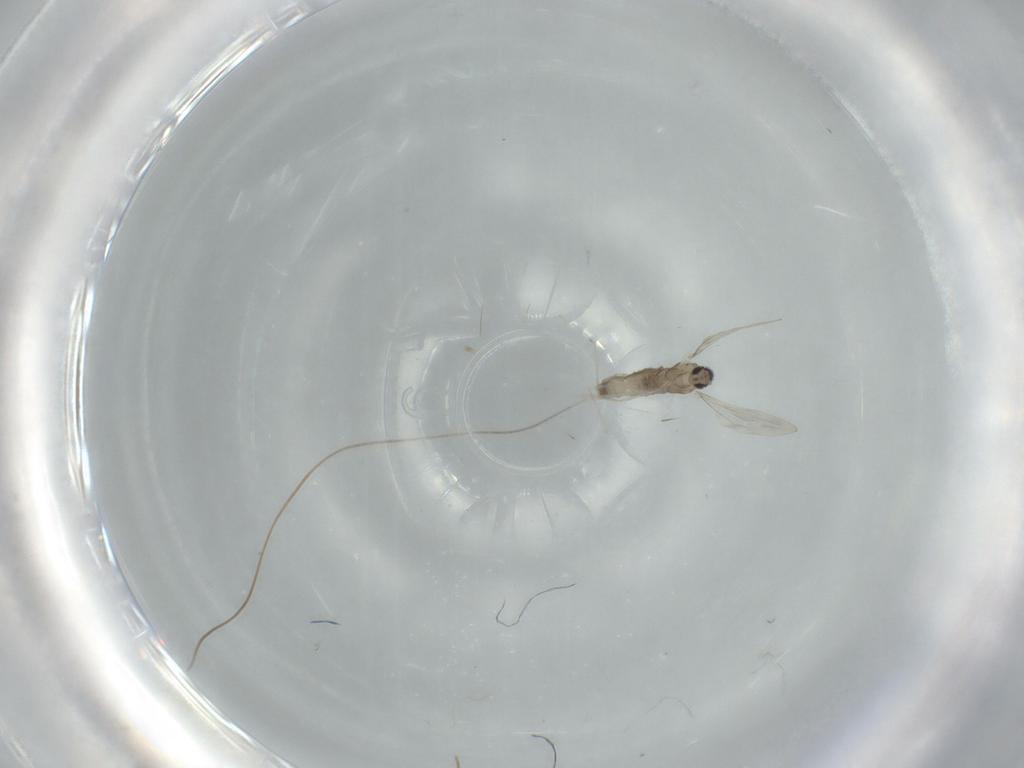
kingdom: Animalia
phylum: Arthropoda
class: Insecta
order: Diptera
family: Cecidomyiidae
